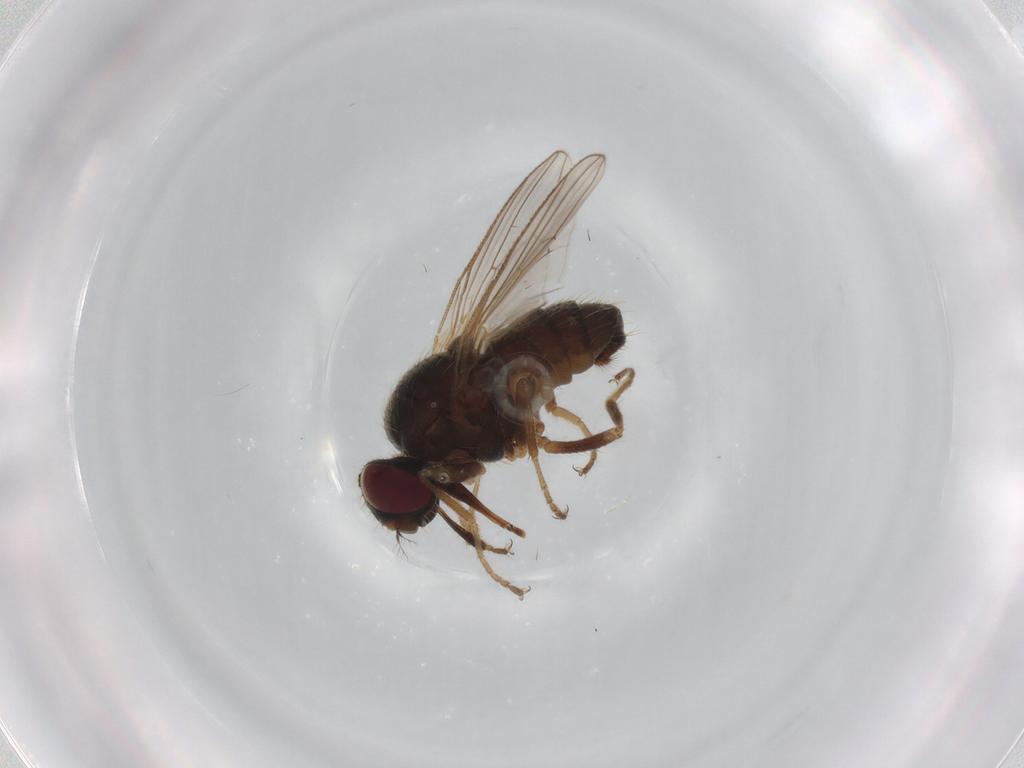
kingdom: Animalia
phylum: Arthropoda
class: Insecta
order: Diptera
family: Muscidae
